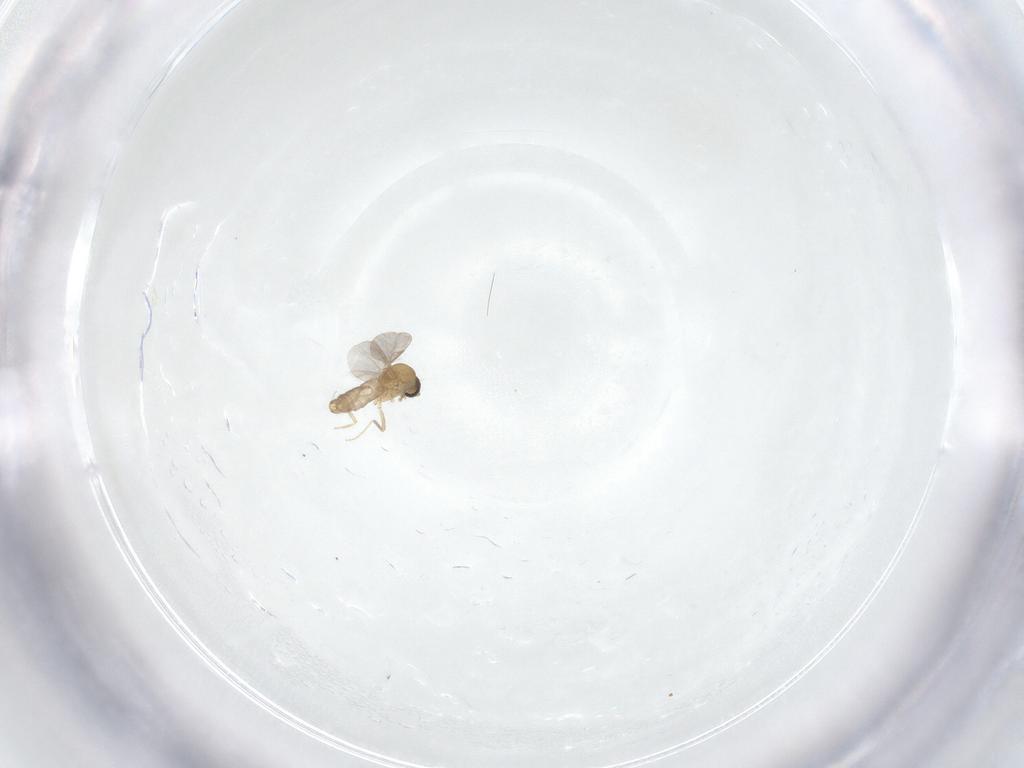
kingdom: Animalia
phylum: Arthropoda
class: Insecta
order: Diptera
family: Ceratopogonidae
